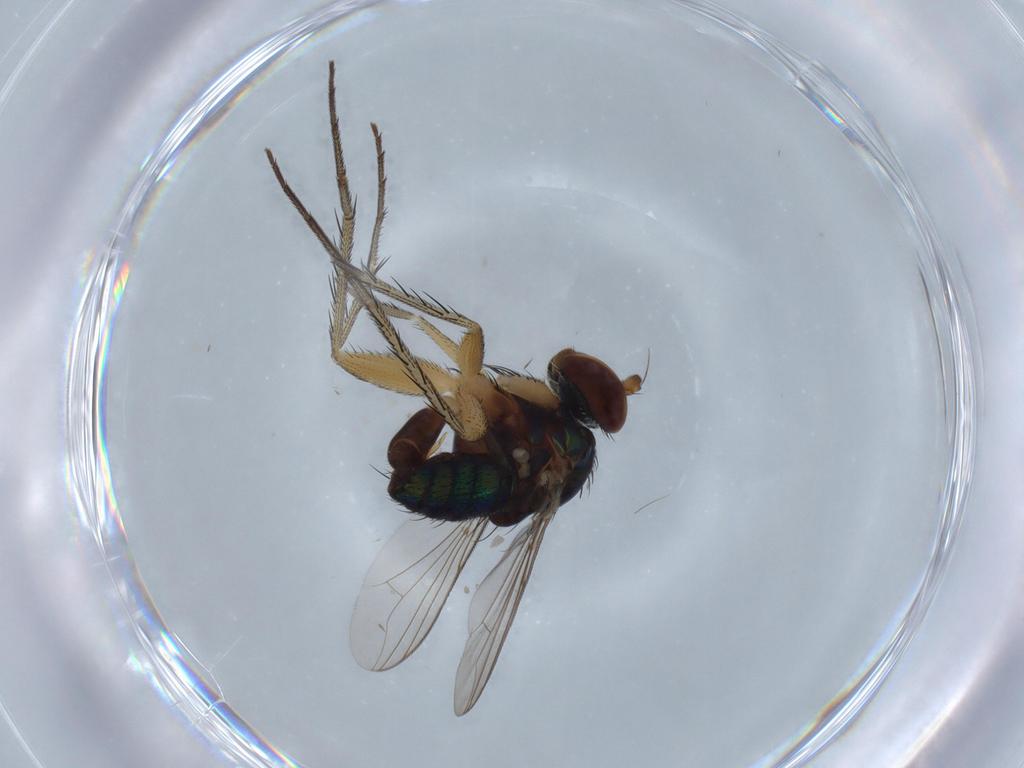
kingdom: Animalia
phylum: Arthropoda
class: Insecta
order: Diptera
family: Dolichopodidae
